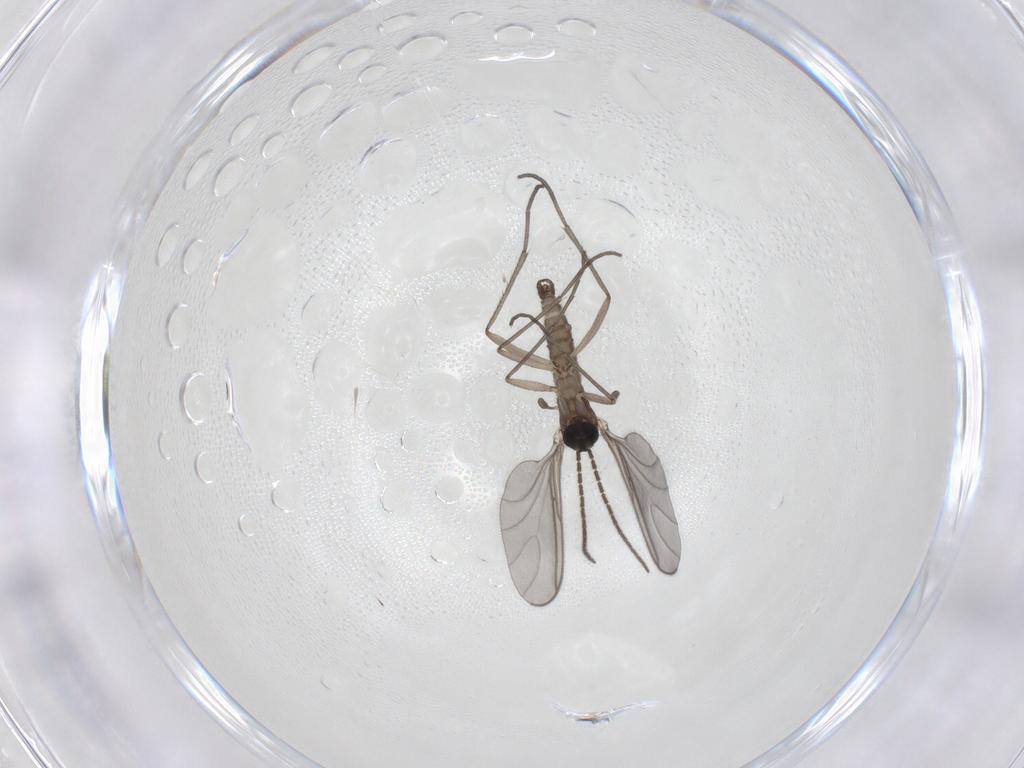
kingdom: Animalia
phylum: Arthropoda
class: Insecta
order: Diptera
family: Sciaridae
